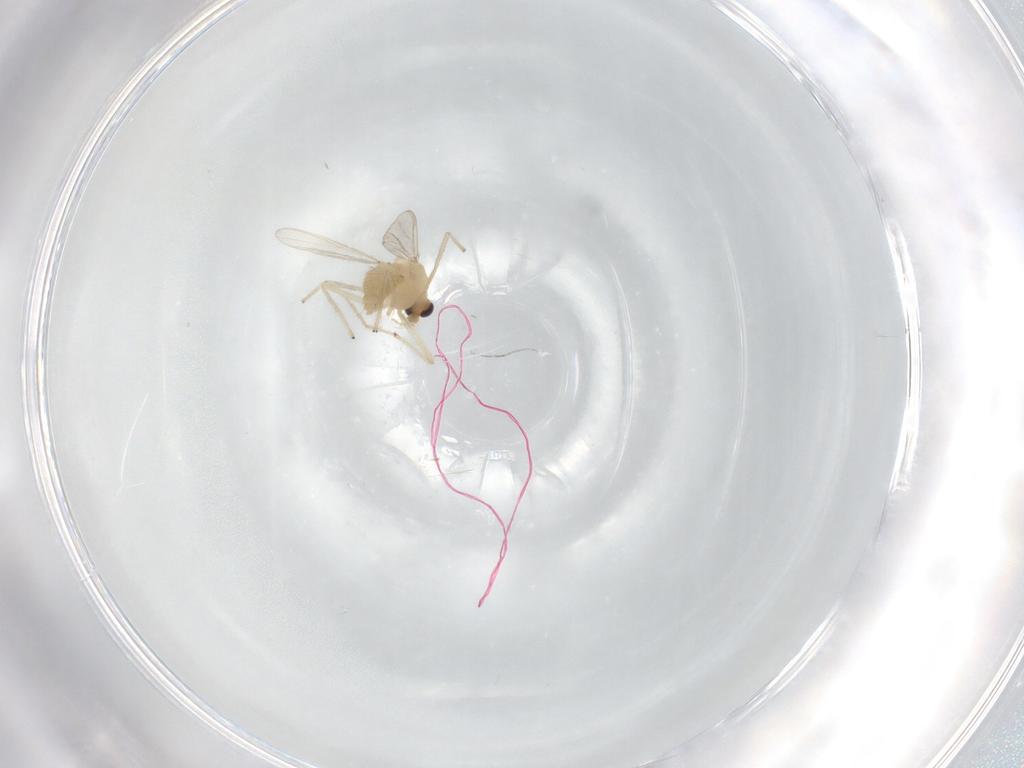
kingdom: Animalia
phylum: Arthropoda
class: Insecta
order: Diptera
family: Chironomidae
